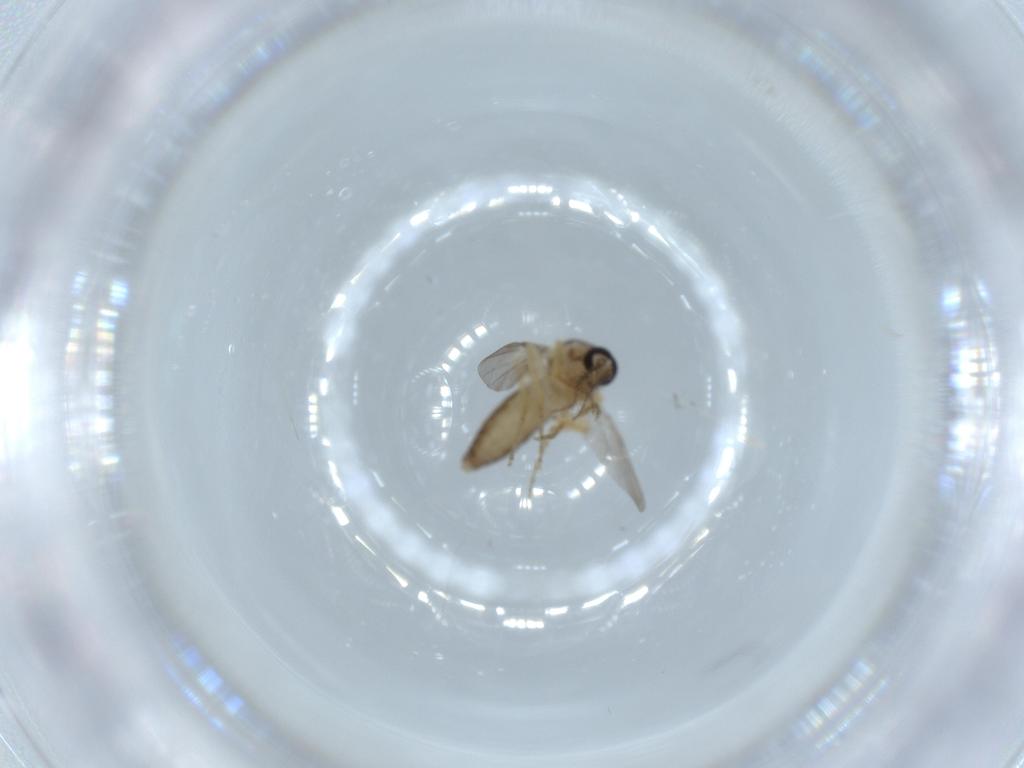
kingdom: Animalia
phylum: Arthropoda
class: Insecta
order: Diptera
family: Ceratopogonidae
